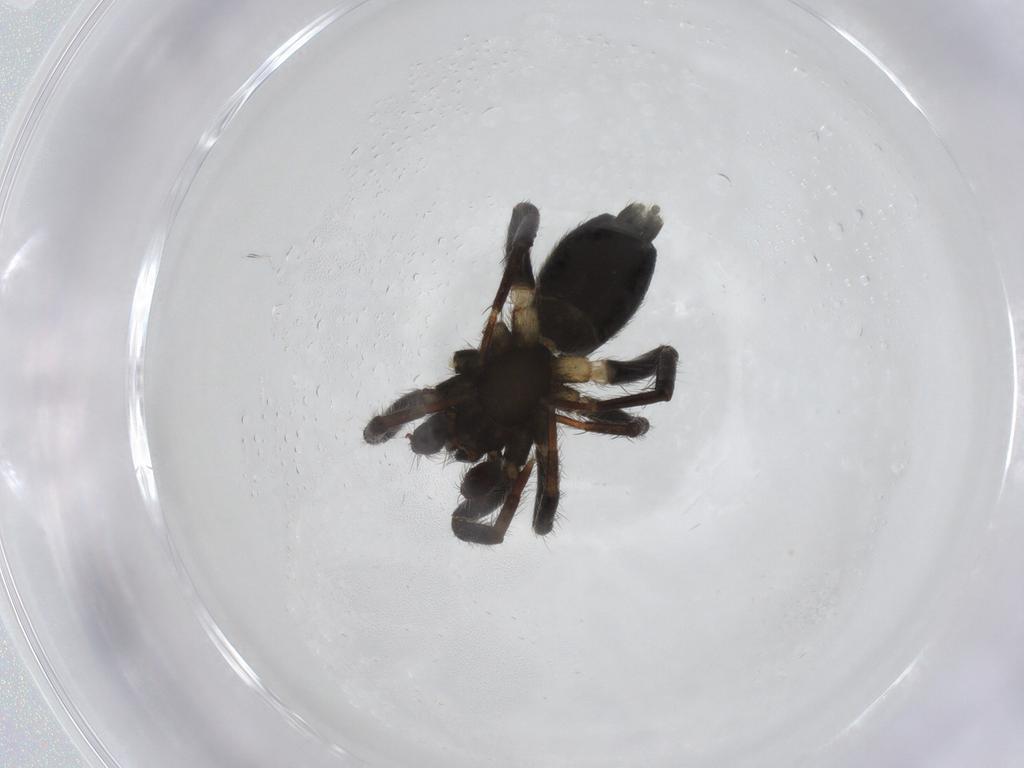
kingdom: Animalia
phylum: Arthropoda
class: Arachnida
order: Araneae
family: Gnaphosidae
